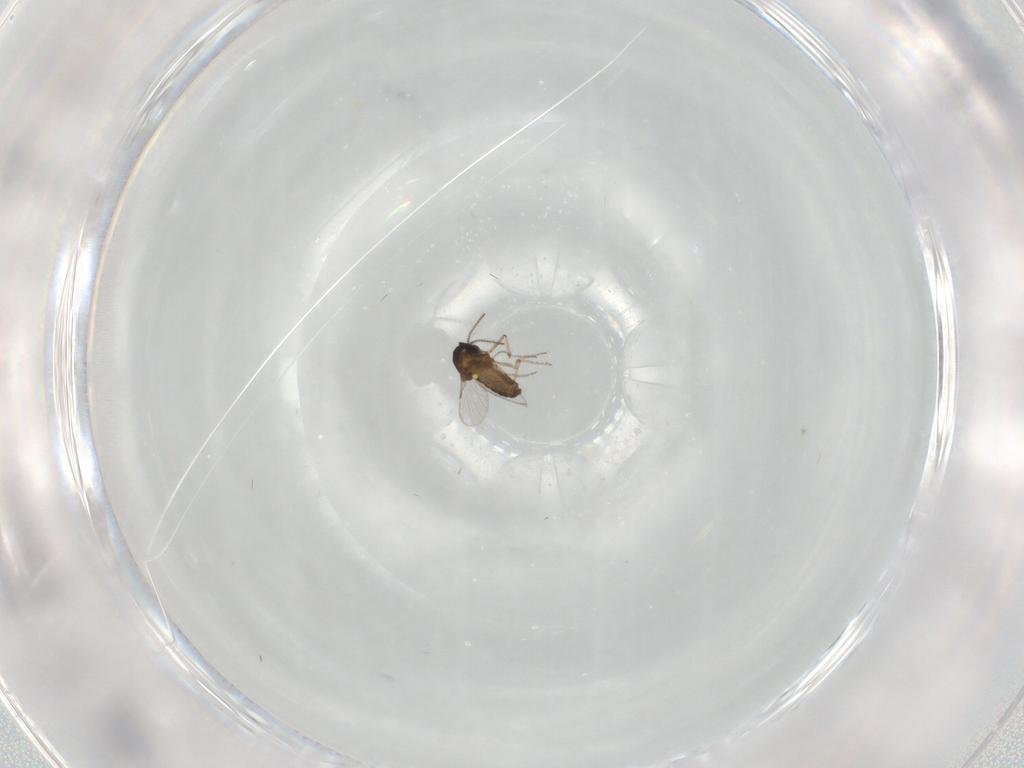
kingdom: Animalia
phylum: Arthropoda
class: Insecta
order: Diptera
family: Ceratopogonidae
